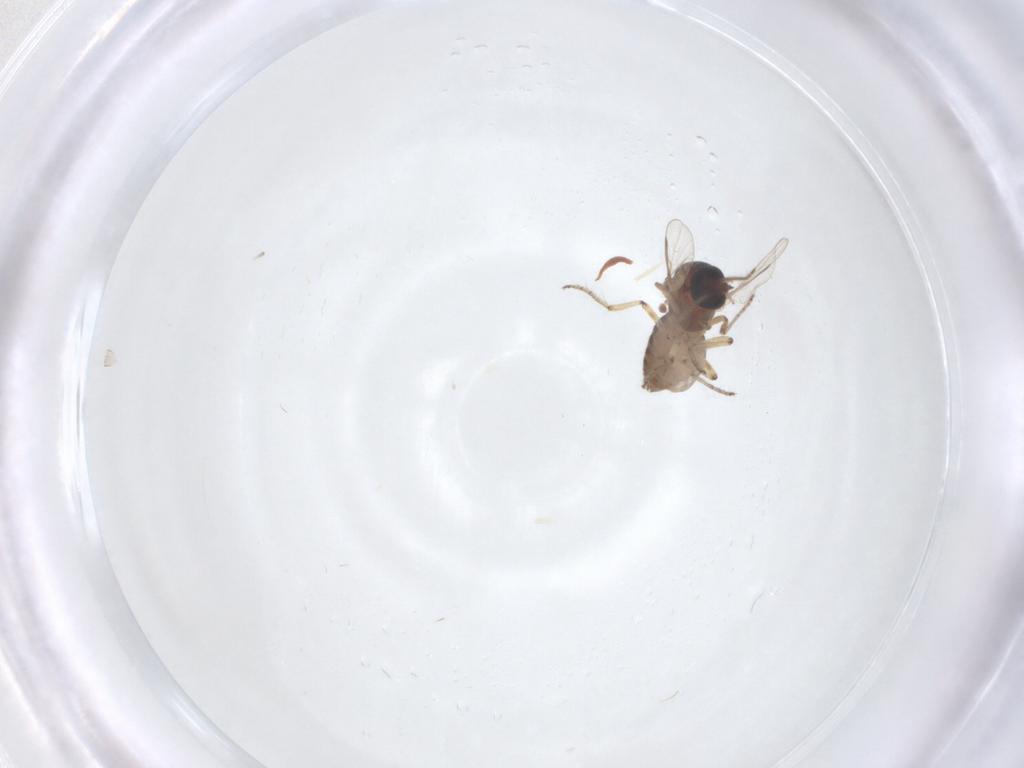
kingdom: Animalia
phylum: Arthropoda
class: Insecta
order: Diptera
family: Ceratopogonidae
